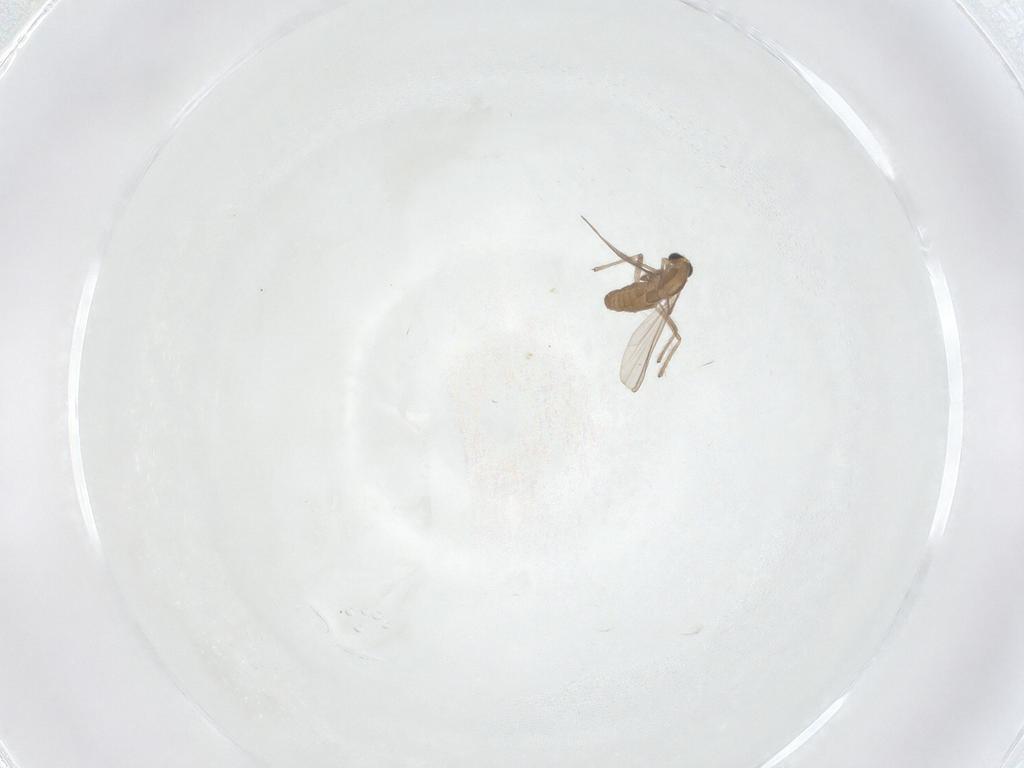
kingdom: Animalia
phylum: Arthropoda
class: Insecta
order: Diptera
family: Chironomidae
